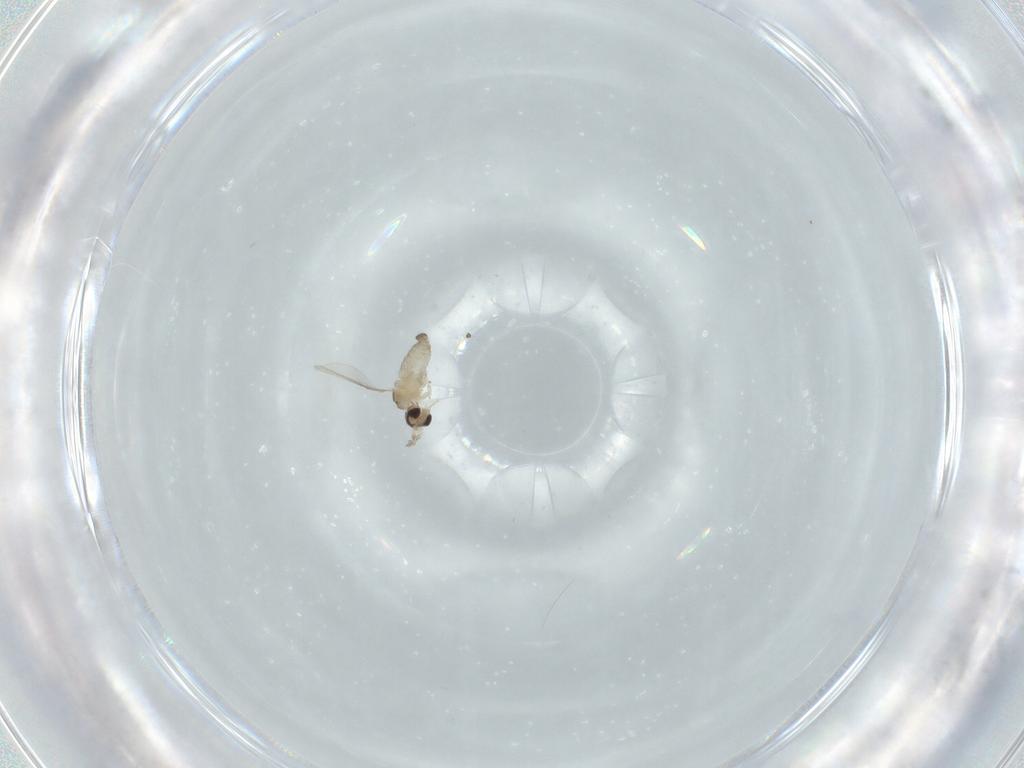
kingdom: Animalia
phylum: Arthropoda
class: Insecta
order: Diptera
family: Cecidomyiidae
